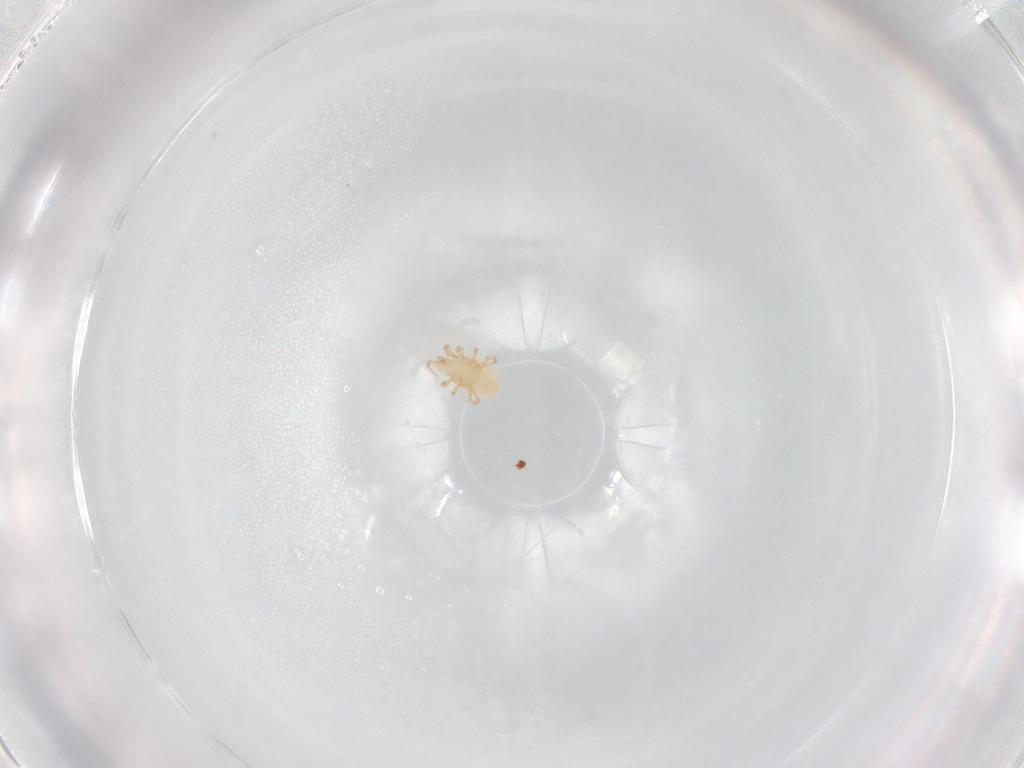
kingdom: Animalia
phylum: Arthropoda
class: Arachnida
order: Mesostigmata
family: Phytoseiidae
